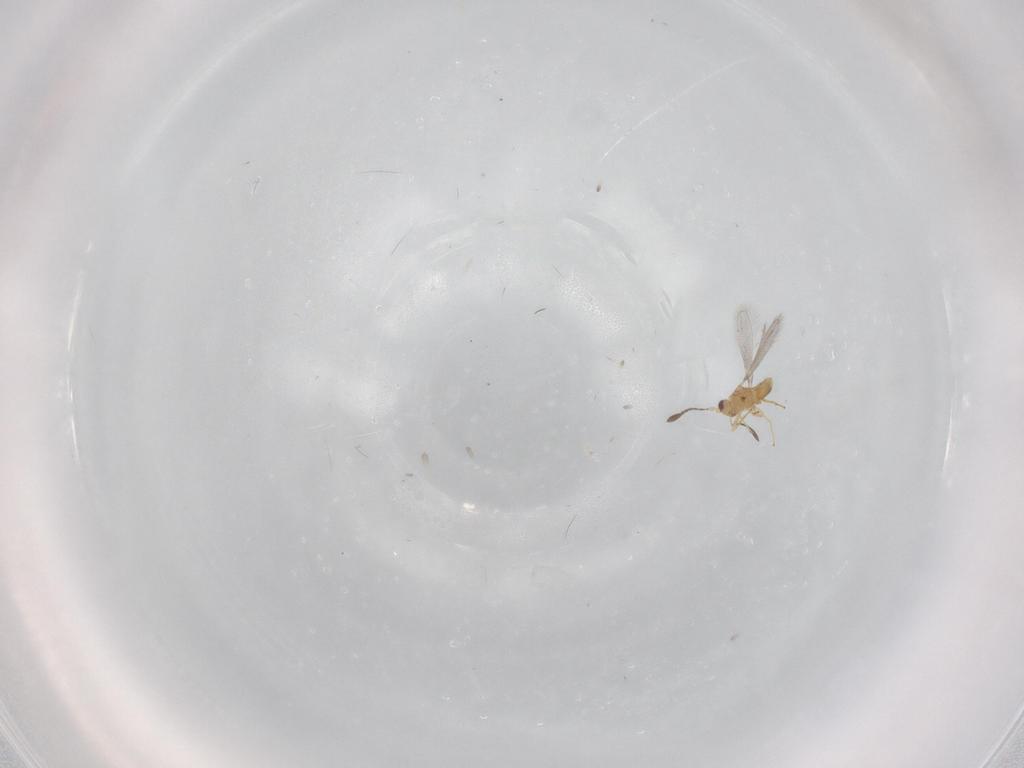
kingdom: Animalia
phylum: Arthropoda
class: Insecta
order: Hymenoptera
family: Mymaridae
